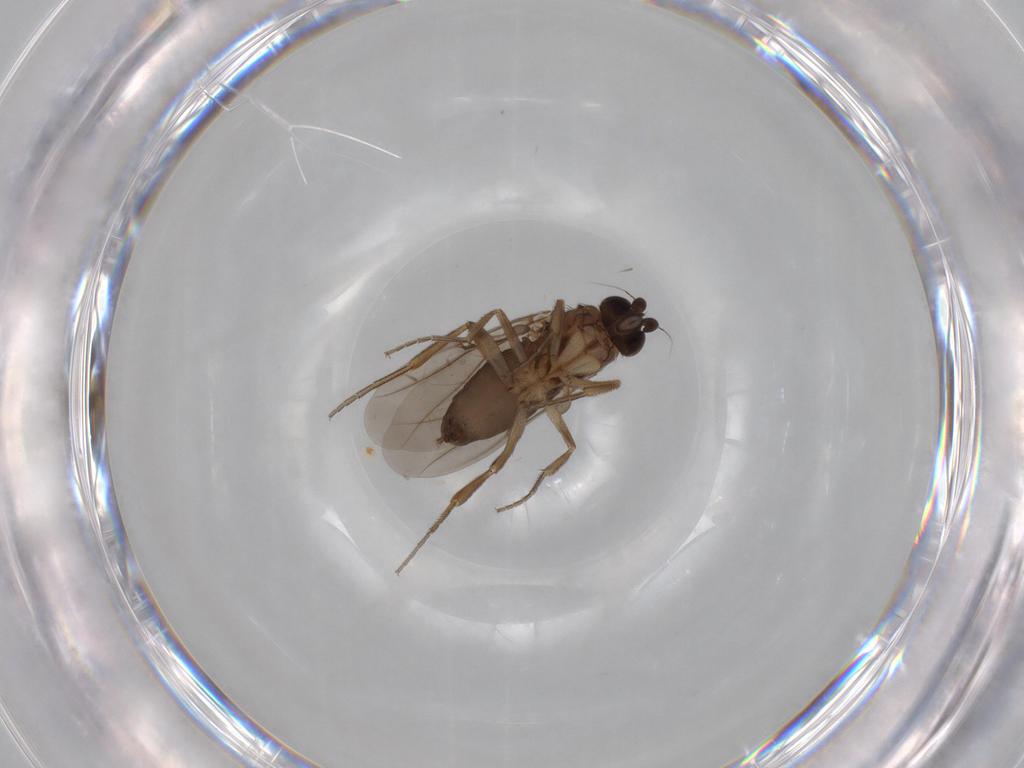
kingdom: Animalia
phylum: Arthropoda
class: Insecta
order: Diptera
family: Phoridae
